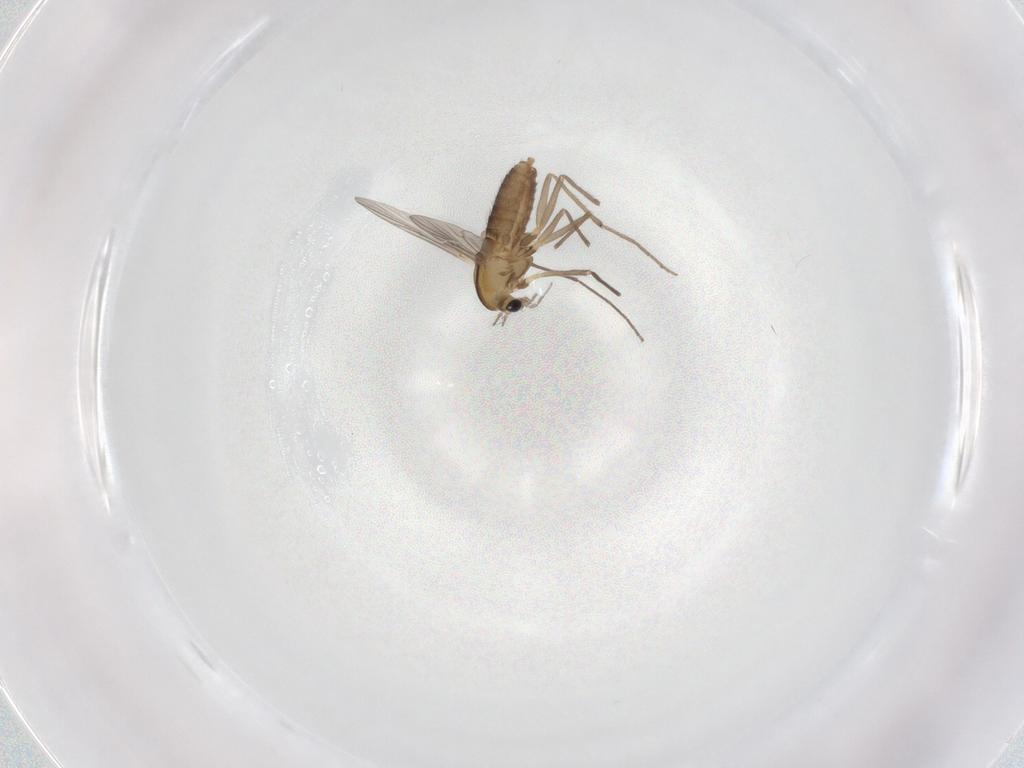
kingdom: Animalia
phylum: Arthropoda
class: Insecta
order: Diptera
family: Chironomidae
